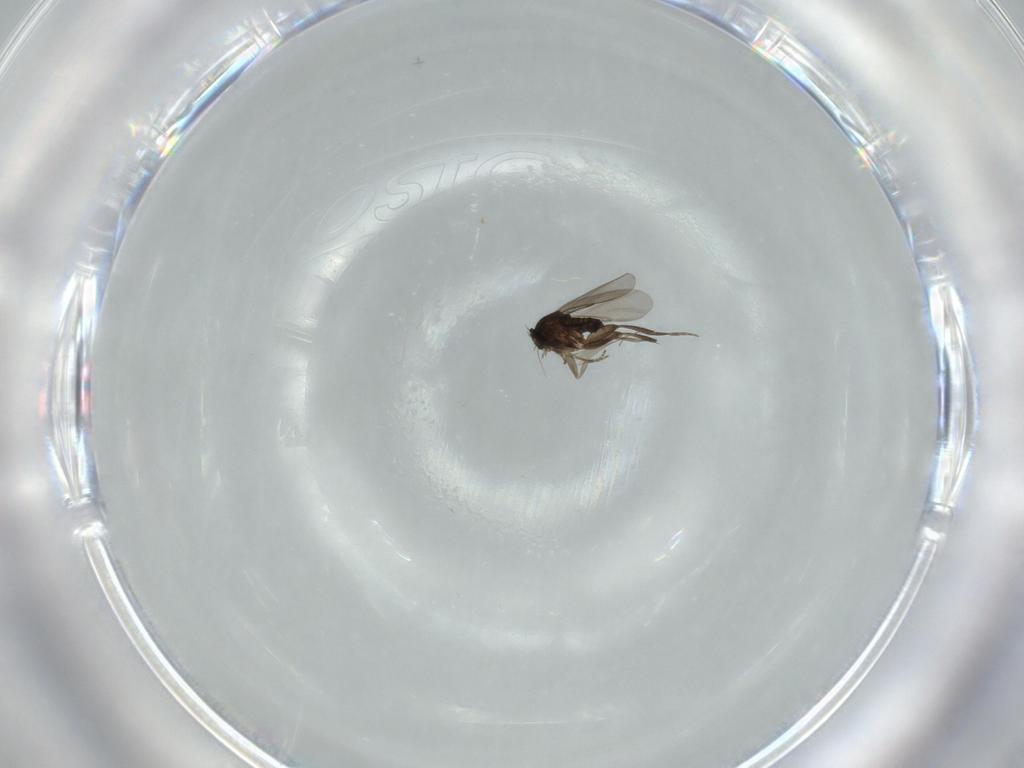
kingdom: Animalia
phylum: Arthropoda
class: Insecta
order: Diptera
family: Phoridae
